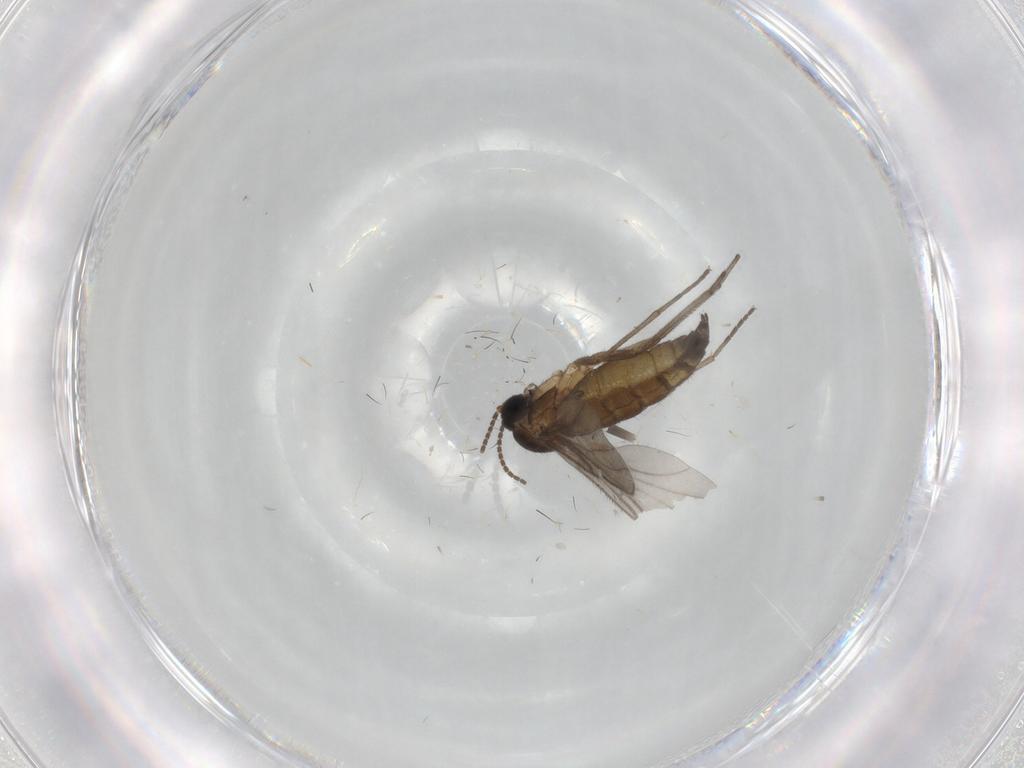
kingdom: Animalia
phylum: Arthropoda
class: Insecta
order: Diptera
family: Sciaridae
